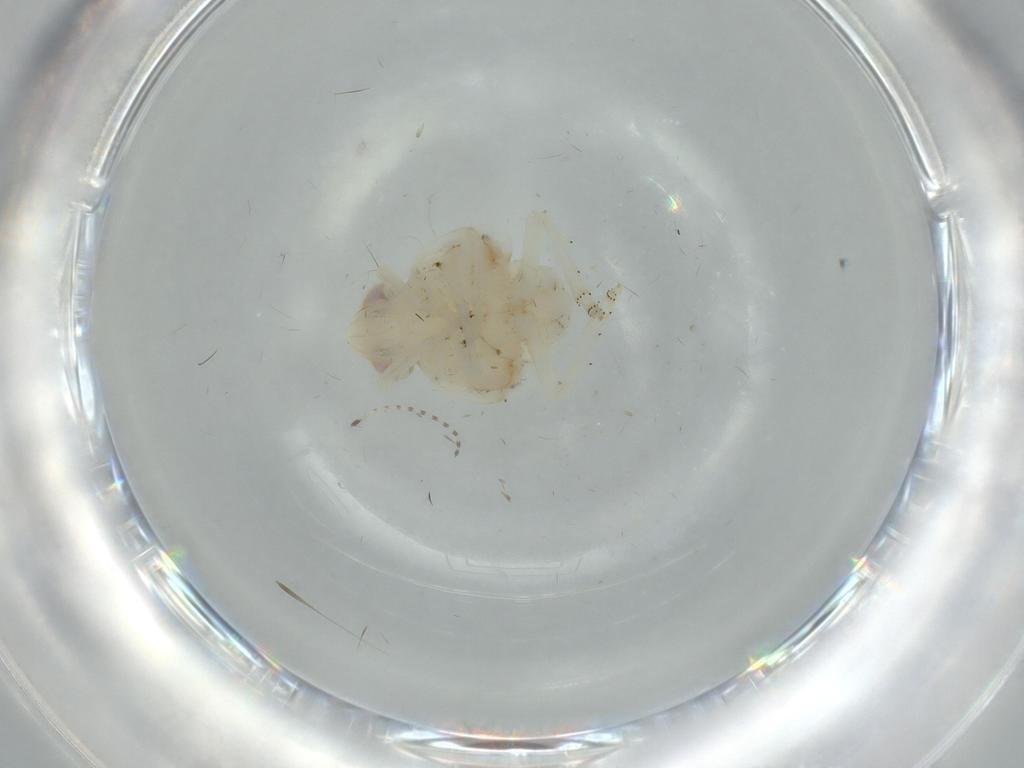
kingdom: Animalia
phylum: Arthropoda
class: Insecta
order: Hemiptera
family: Nogodinidae
